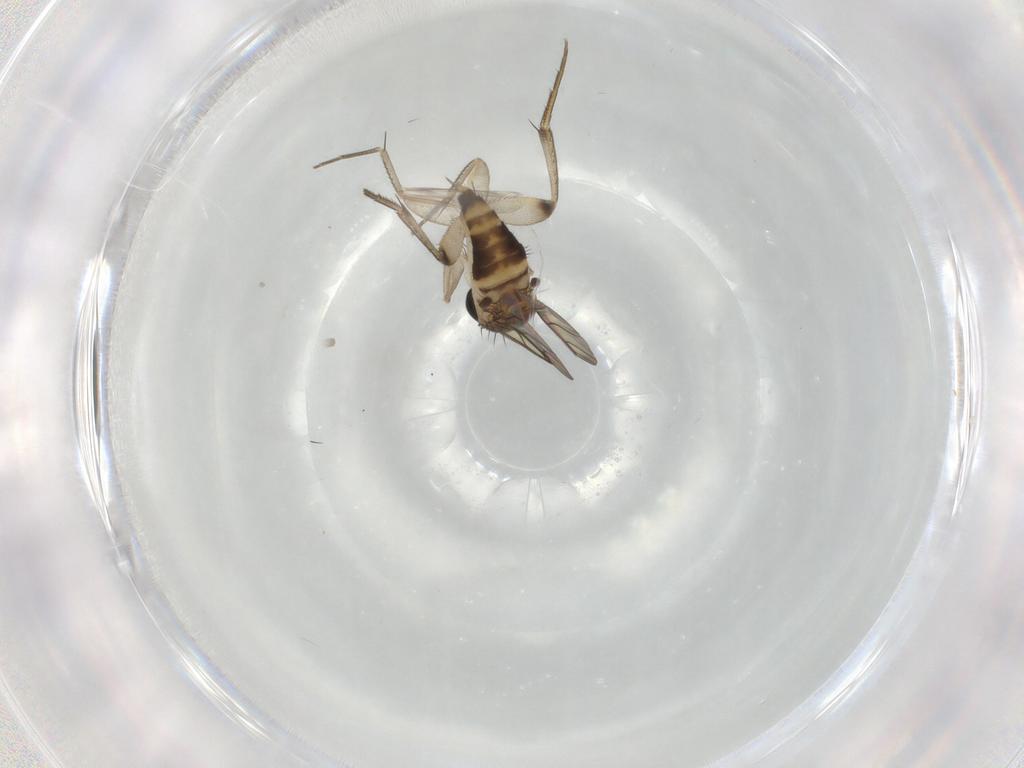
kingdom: Animalia
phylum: Arthropoda
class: Insecta
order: Diptera
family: Phoridae
